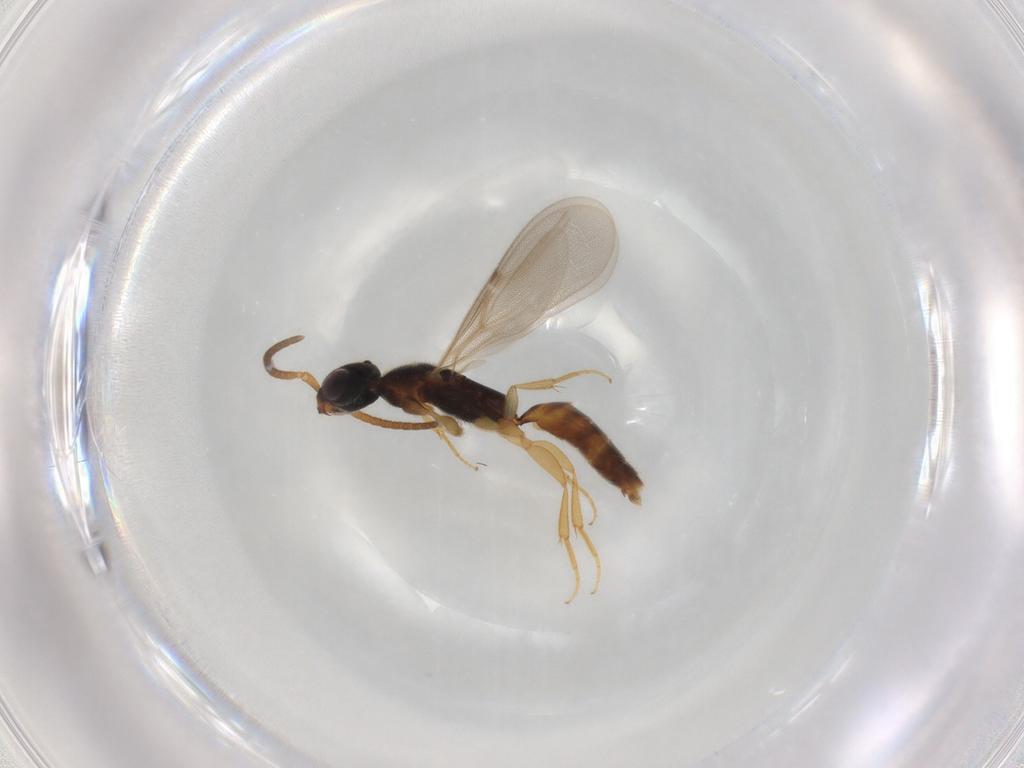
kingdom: Animalia
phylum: Arthropoda
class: Insecta
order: Hymenoptera
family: Bethylidae
